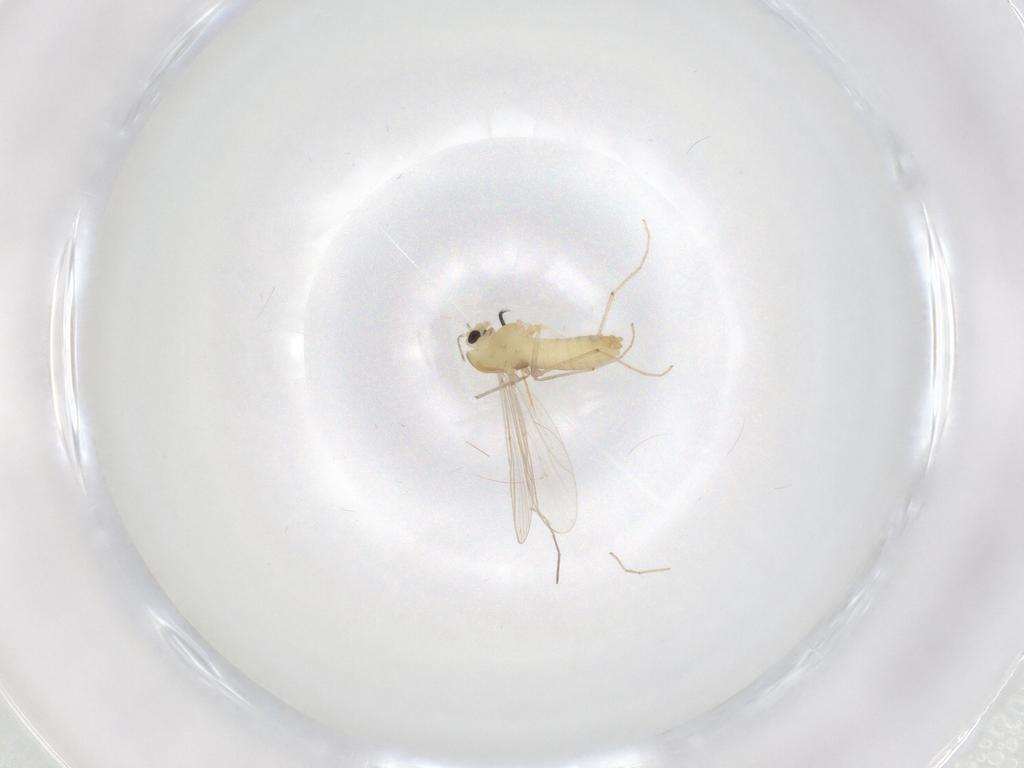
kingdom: Animalia
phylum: Arthropoda
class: Insecta
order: Diptera
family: Chironomidae
